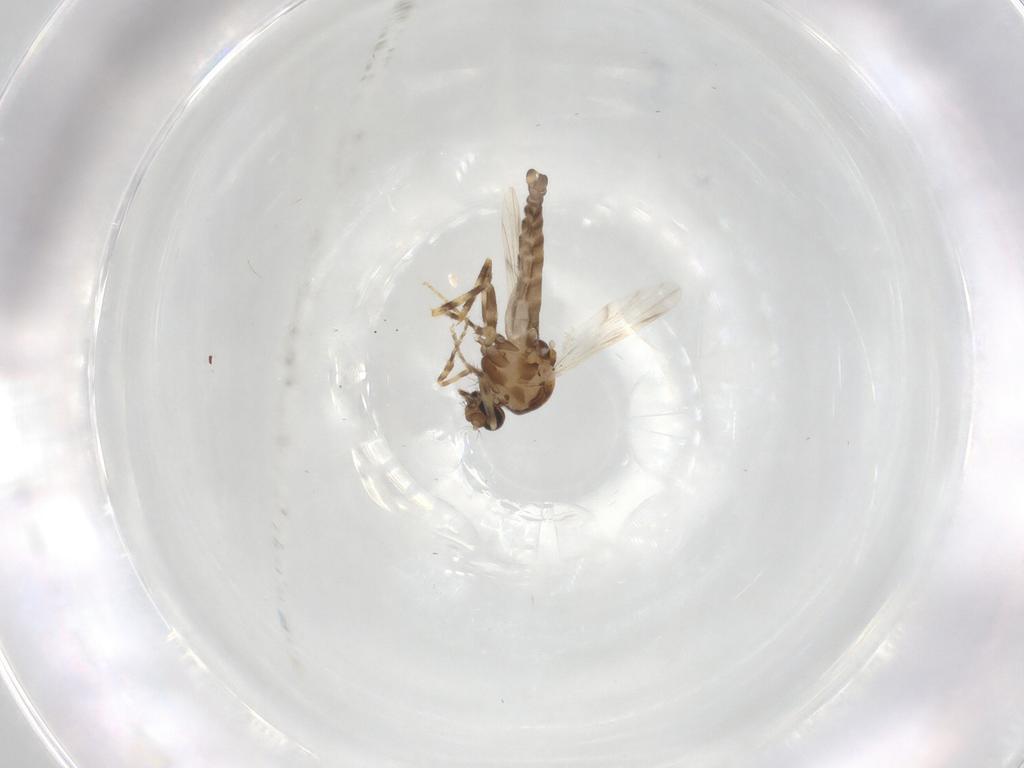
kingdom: Animalia
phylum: Arthropoda
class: Insecta
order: Diptera
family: Ceratopogonidae
